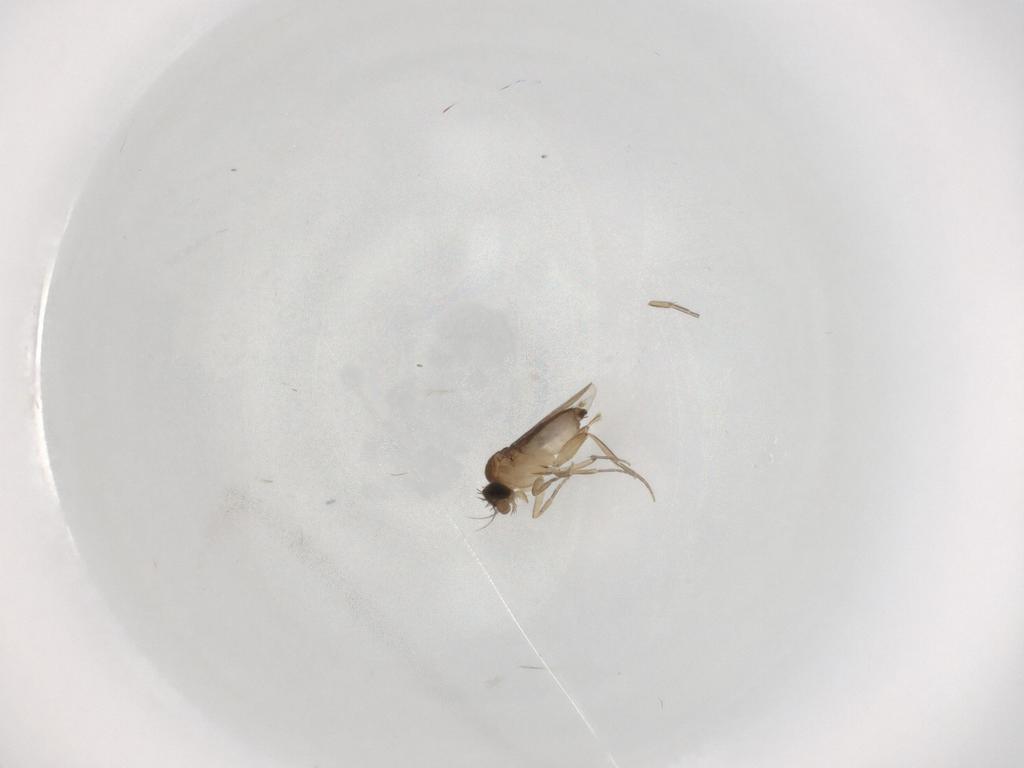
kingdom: Animalia
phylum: Arthropoda
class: Insecta
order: Diptera
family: Phoridae
